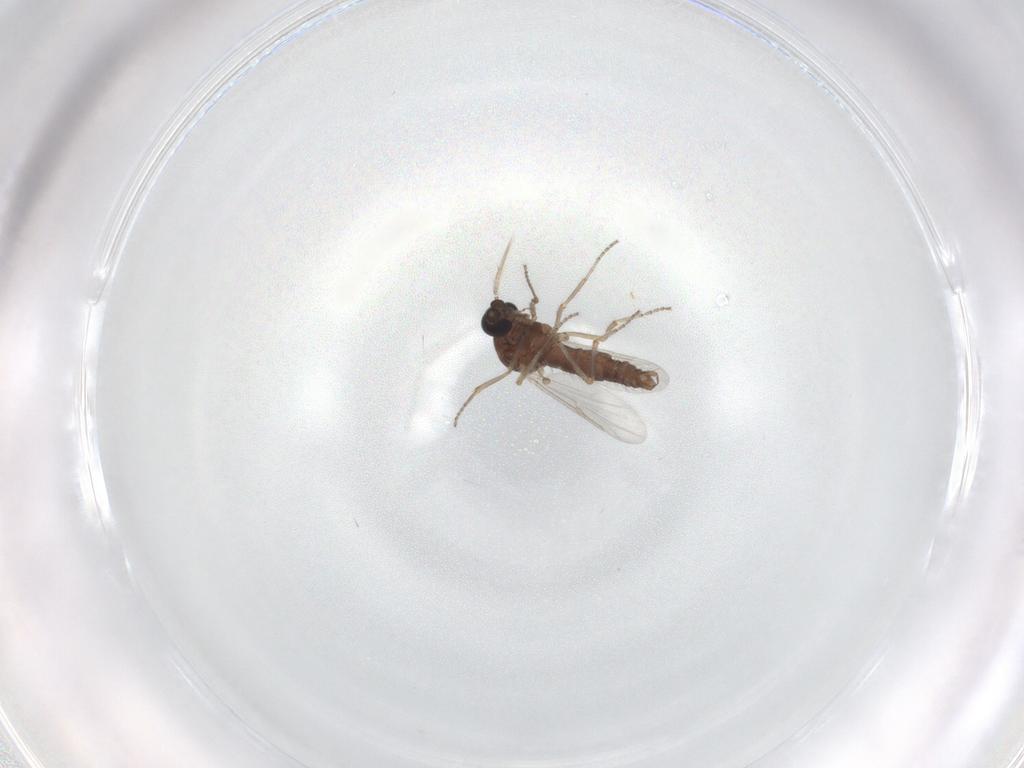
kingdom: Animalia
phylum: Arthropoda
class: Insecta
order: Diptera
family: Ceratopogonidae
